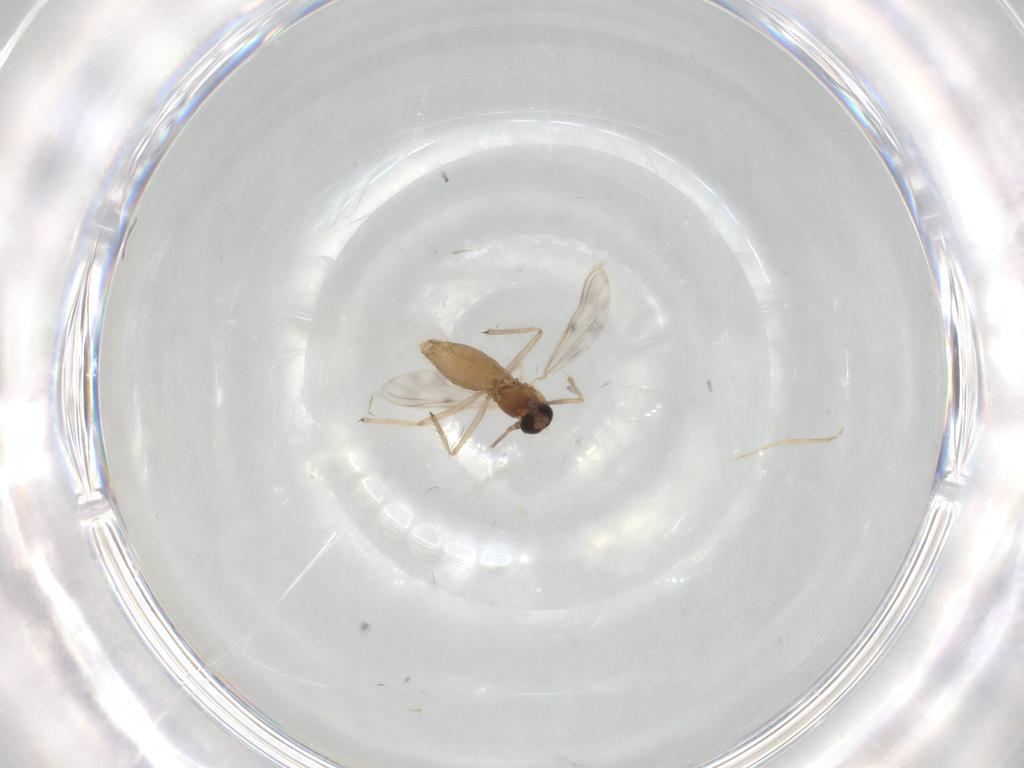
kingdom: Animalia
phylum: Arthropoda
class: Insecta
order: Diptera
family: Chironomidae
